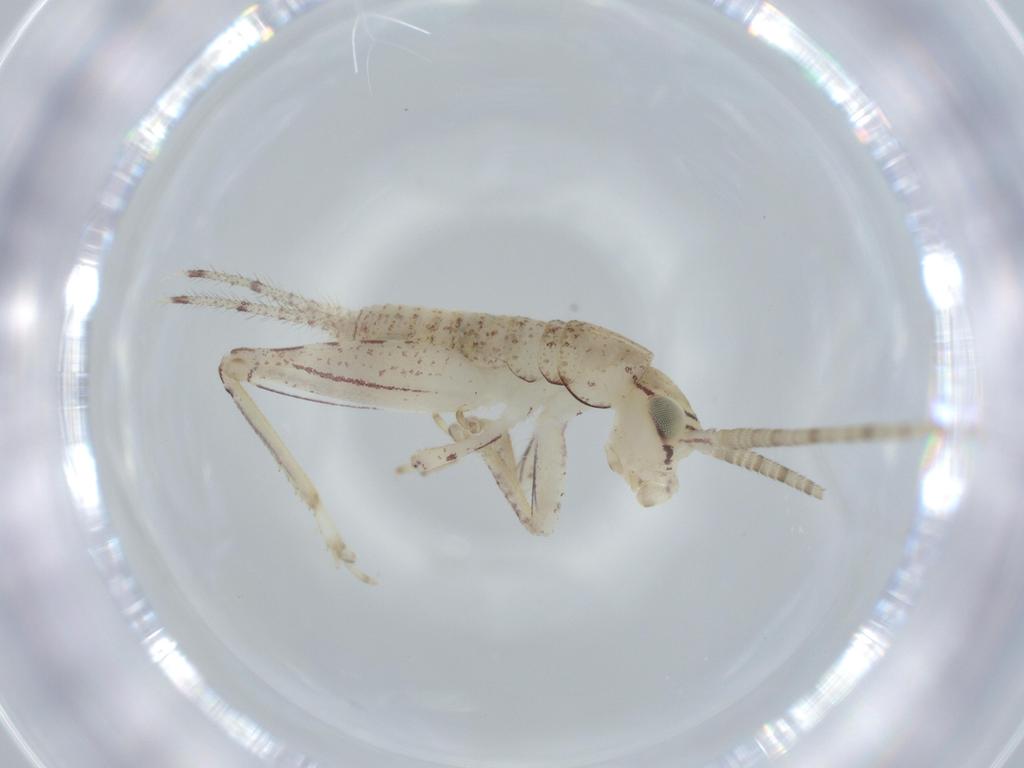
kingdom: Animalia
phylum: Arthropoda
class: Insecta
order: Orthoptera
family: Gryllidae
